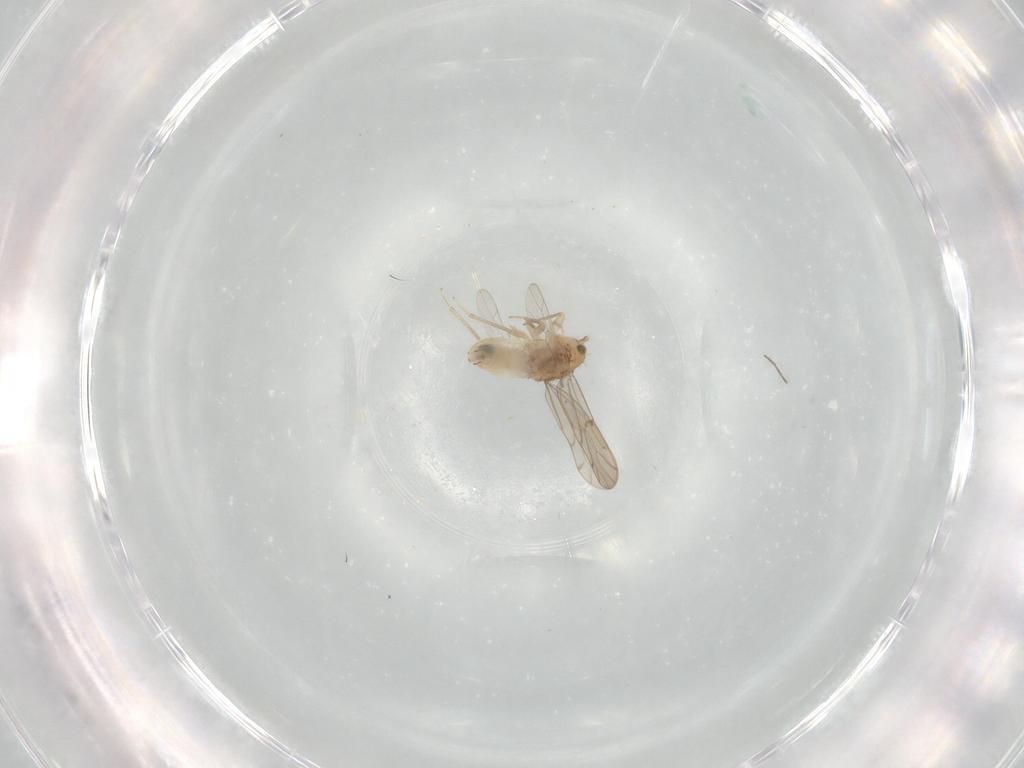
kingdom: Animalia
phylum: Arthropoda
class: Insecta
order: Psocodea
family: Ectopsocidae
